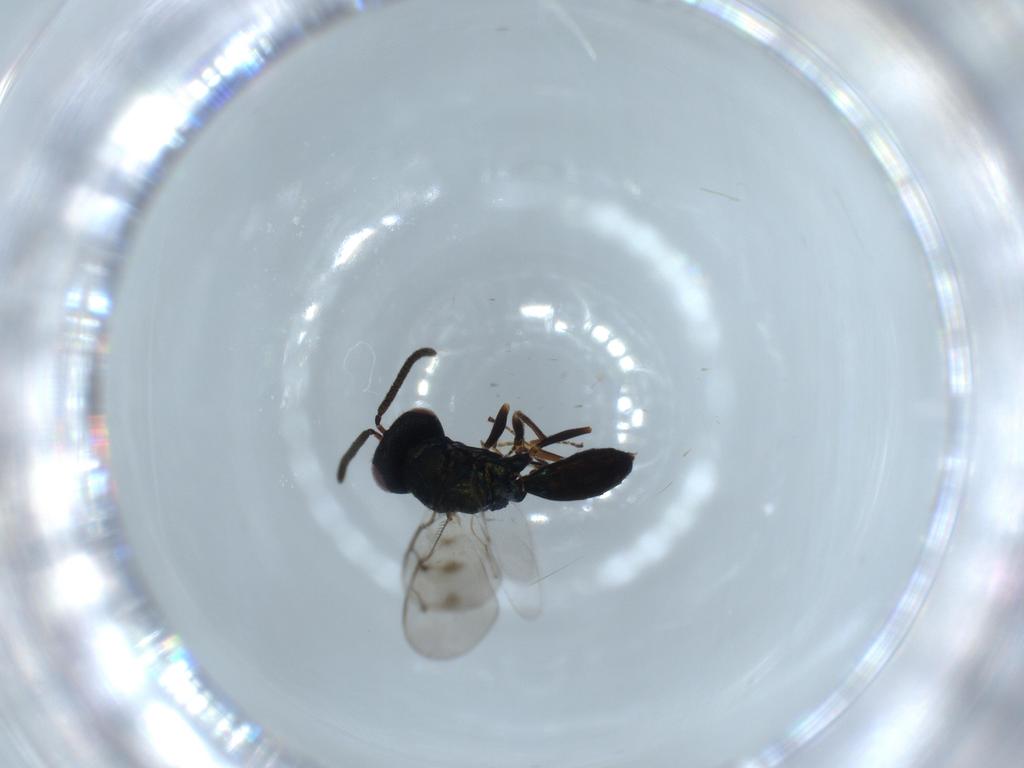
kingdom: Animalia
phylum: Arthropoda
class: Insecta
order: Hymenoptera
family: Pteromalidae
